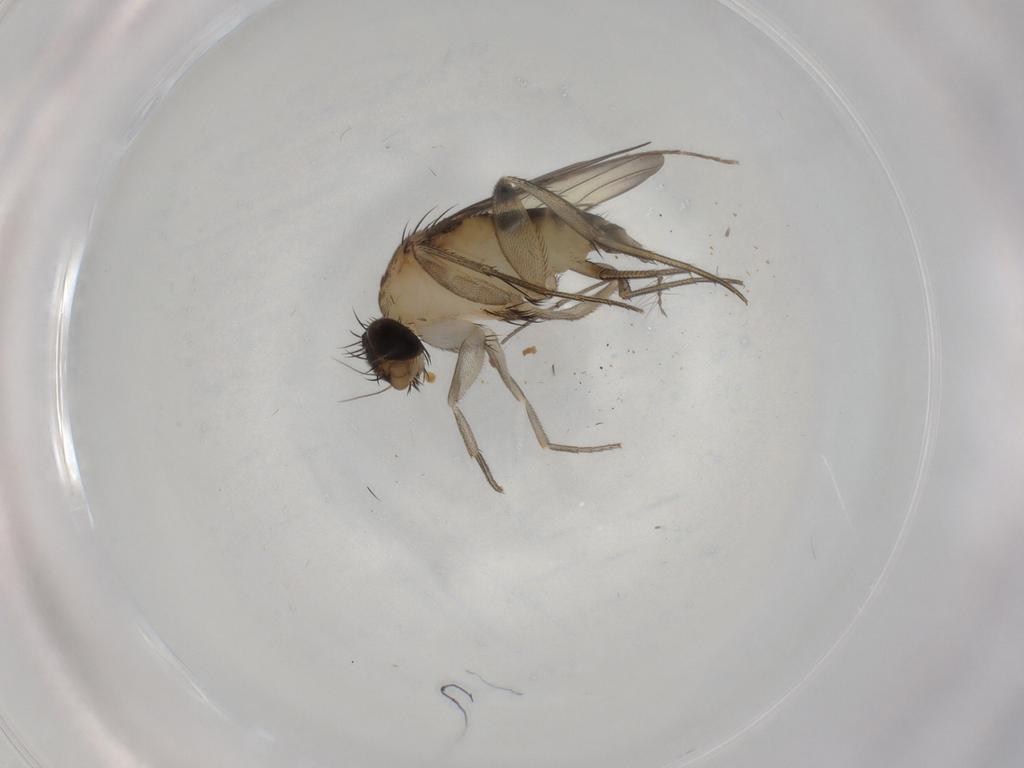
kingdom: Animalia
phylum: Arthropoda
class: Insecta
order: Diptera
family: Phoridae
